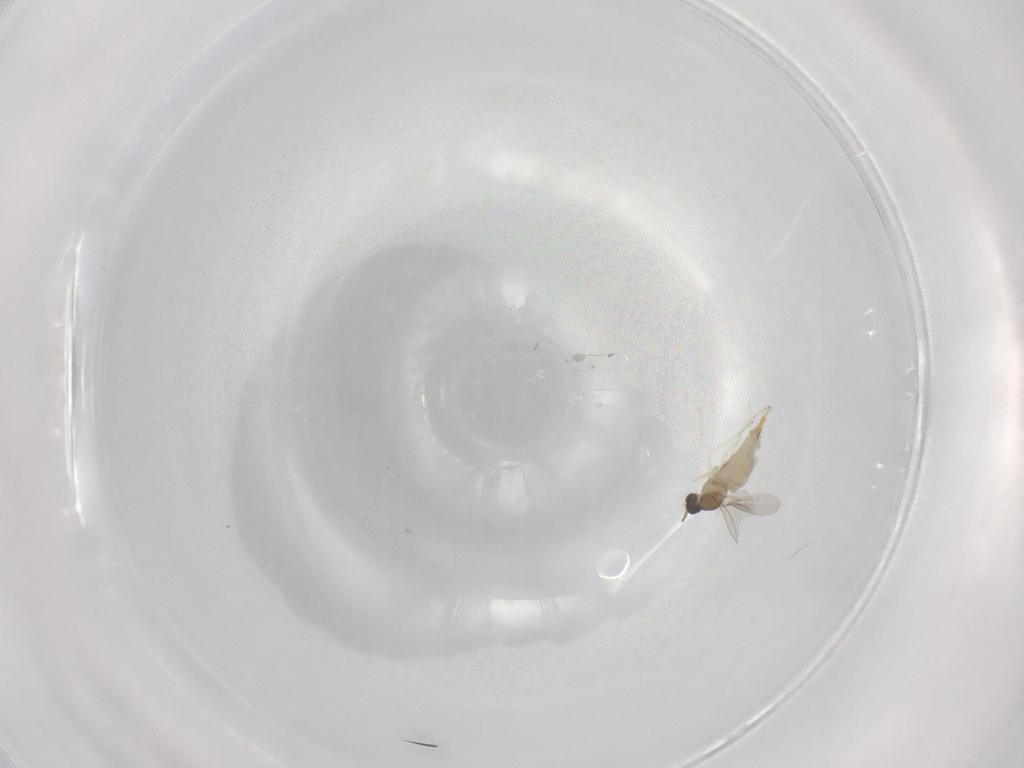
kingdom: Animalia
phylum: Arthropoda
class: Insecta
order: Diptera
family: Cecidomyiidae
